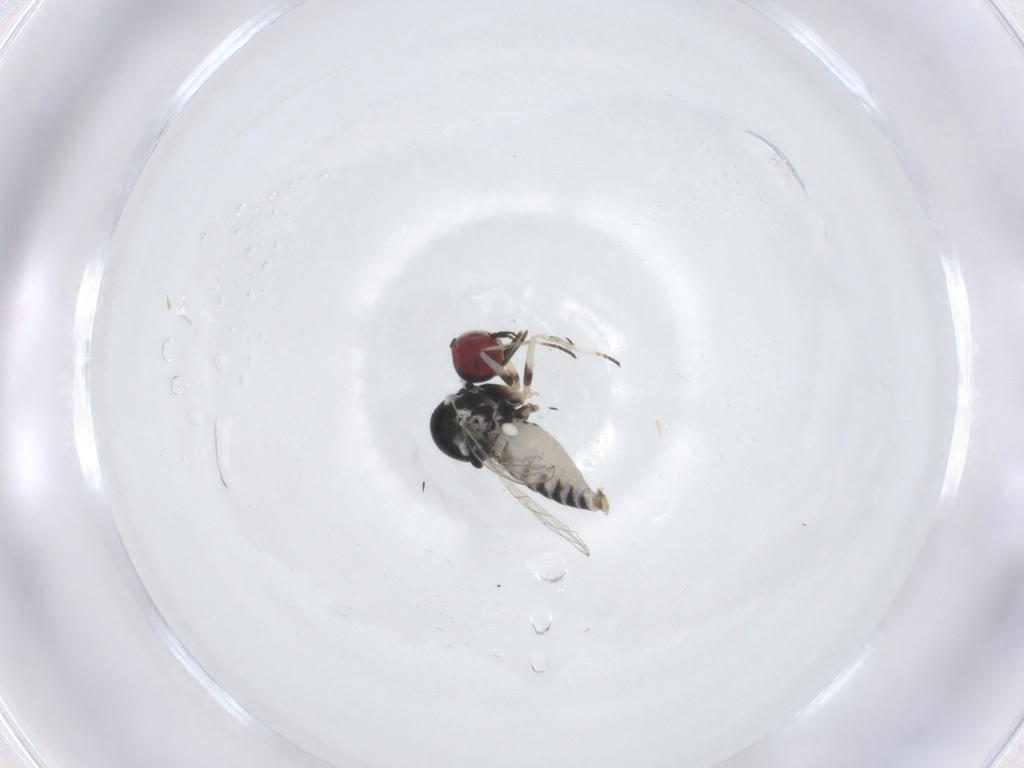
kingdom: Animalia
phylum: Arthropoda
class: Insecta
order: Diptera
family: Bombyliidae
